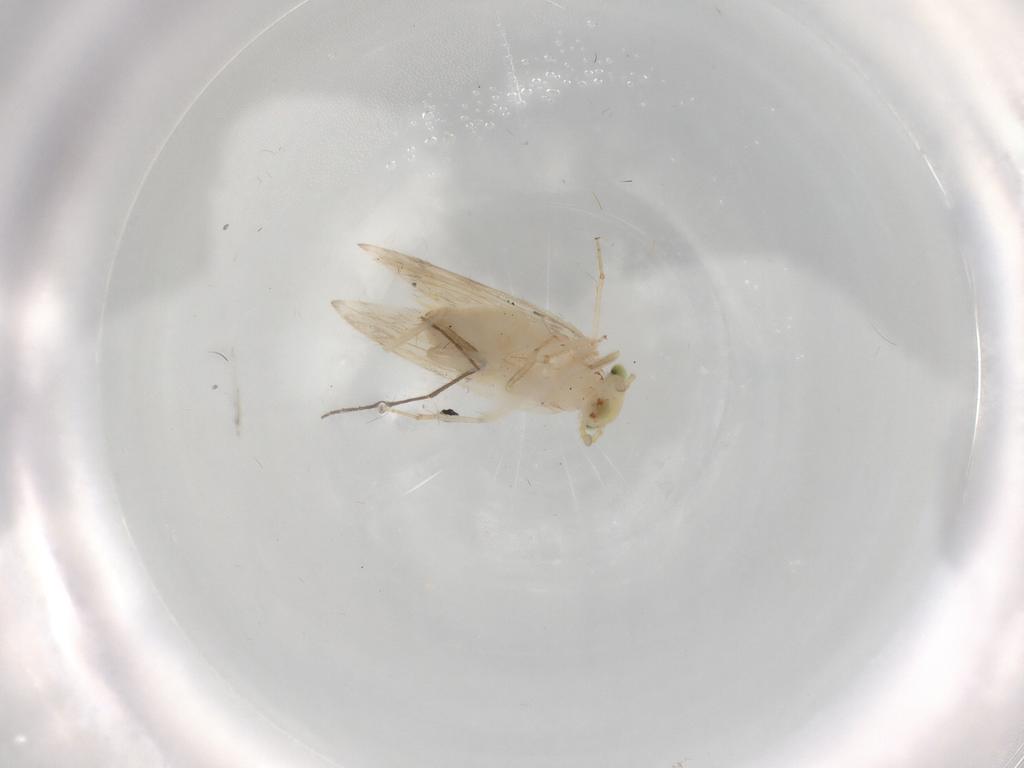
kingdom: Animalia
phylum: Arthropoda
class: Insecta
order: Psocodea
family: Lepidopsocidae
